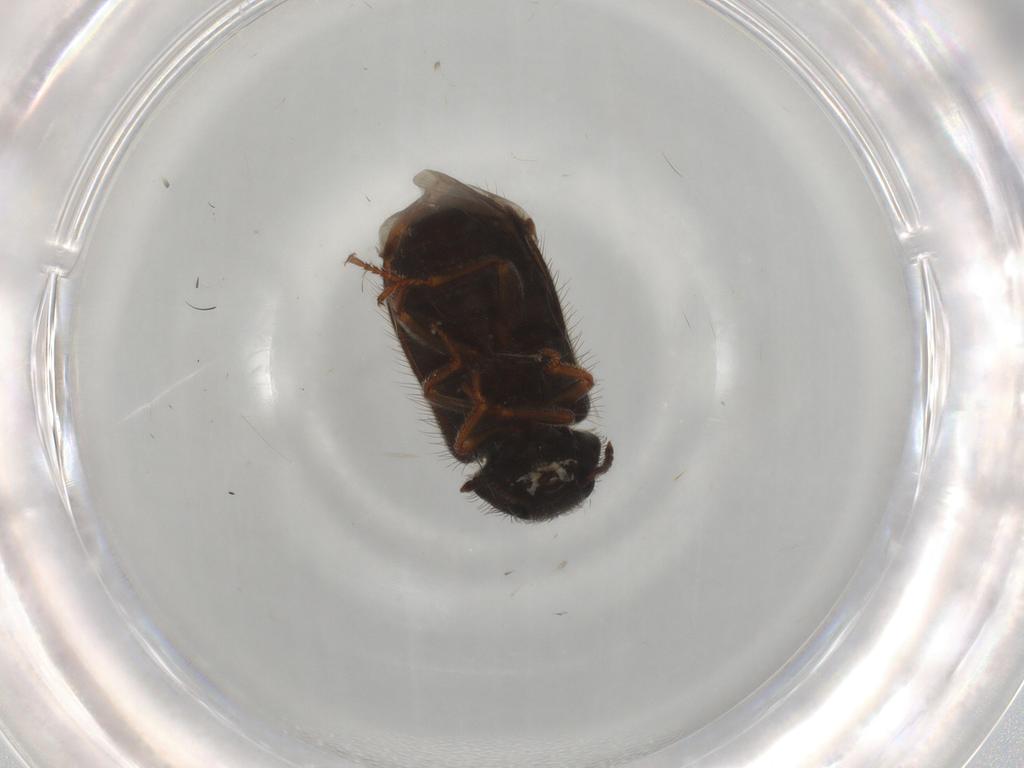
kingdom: Animalia
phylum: Arthropoda
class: Insecta
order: Coleoptera
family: Melyridae
